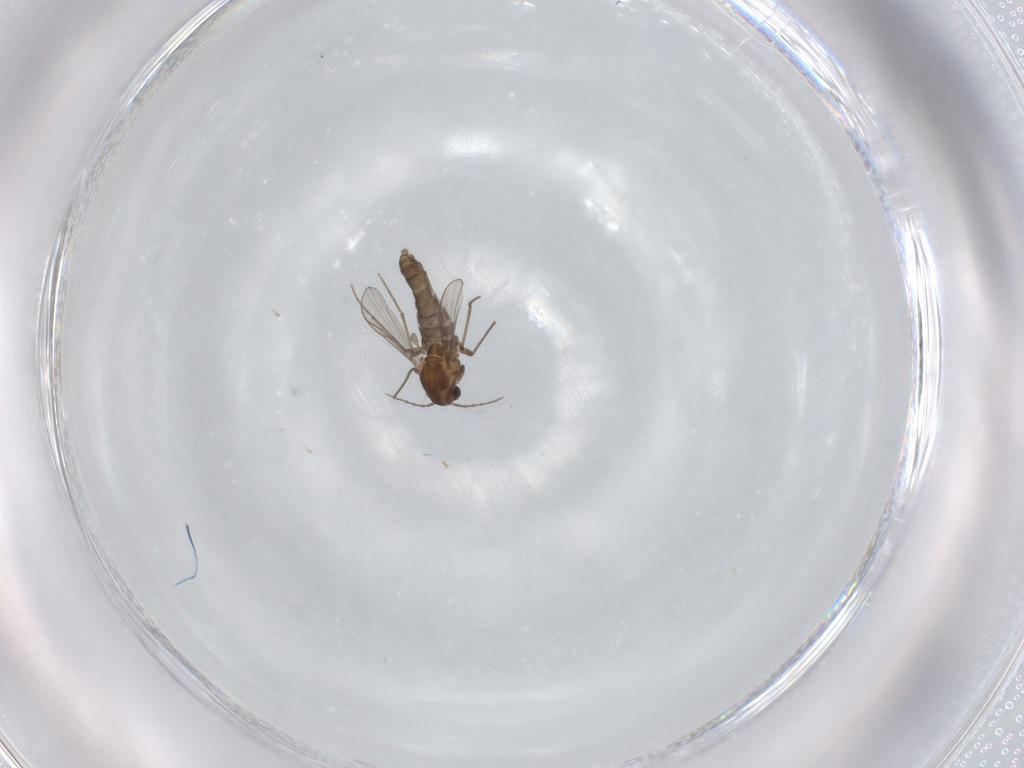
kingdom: Animalia
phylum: Arthropoda
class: Insecta
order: Diptera
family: Chironomidae
